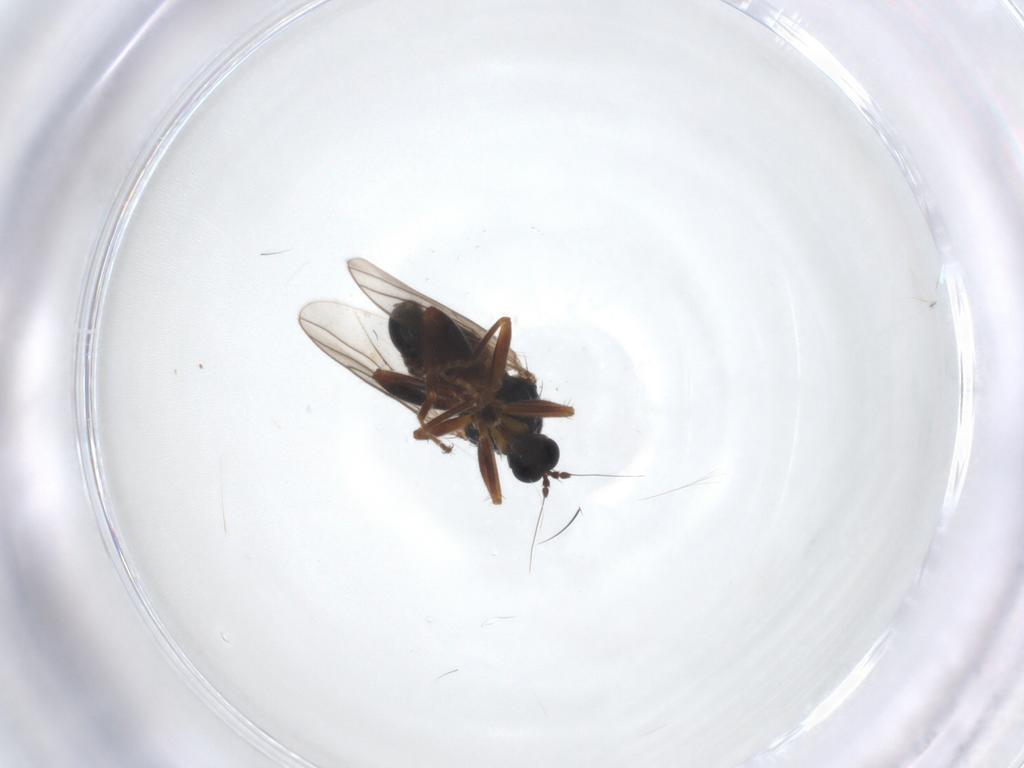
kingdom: Animalia
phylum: Arthropoda
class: Insecta
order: Diptera
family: Hybotidae
